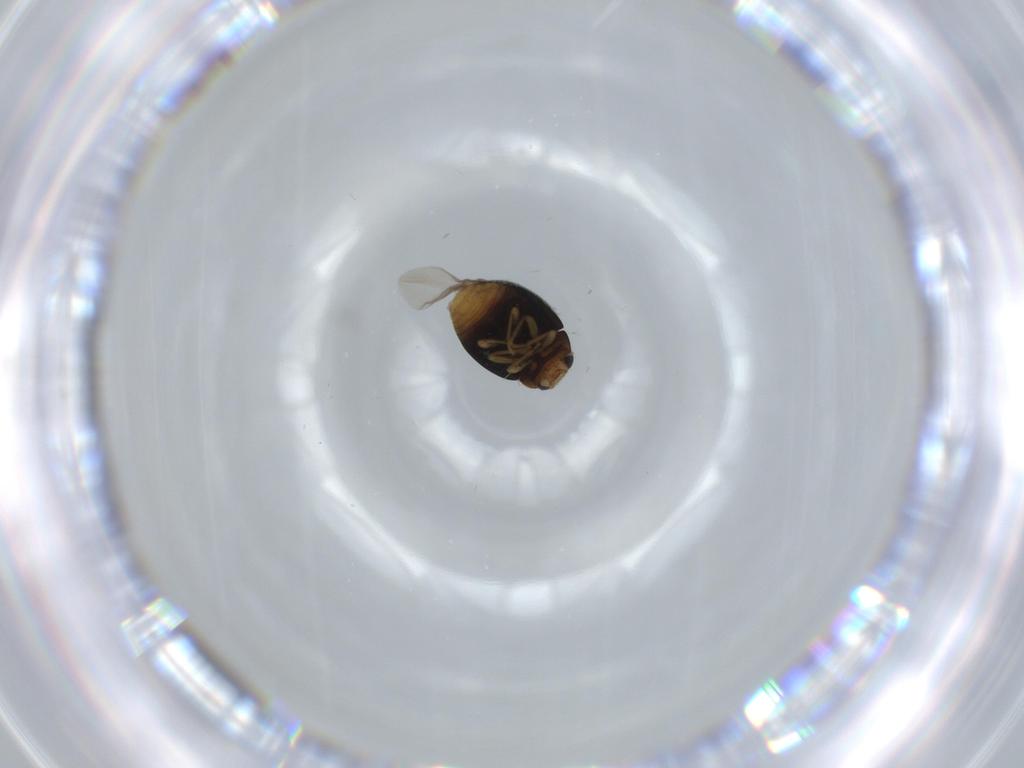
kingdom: Animalia
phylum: Arthropoda
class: Insecta
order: Coleoptera
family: Coccinellidae
